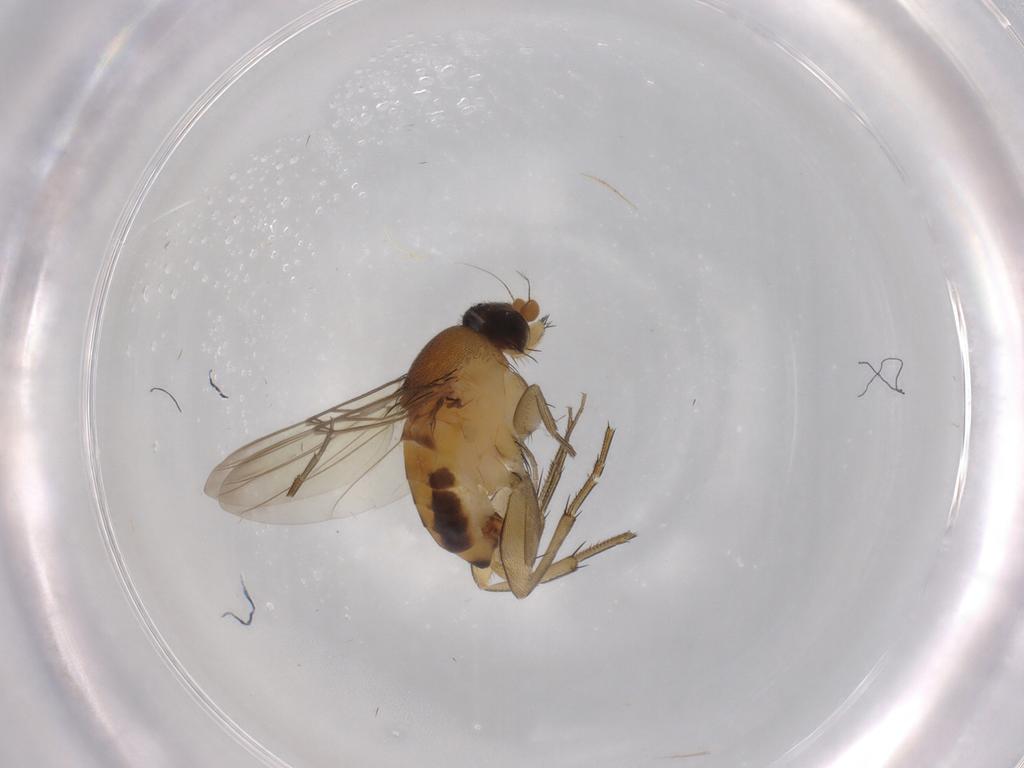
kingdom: Animalia
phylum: Arthropoda
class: Insecta
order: Diptera
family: Phoridae
